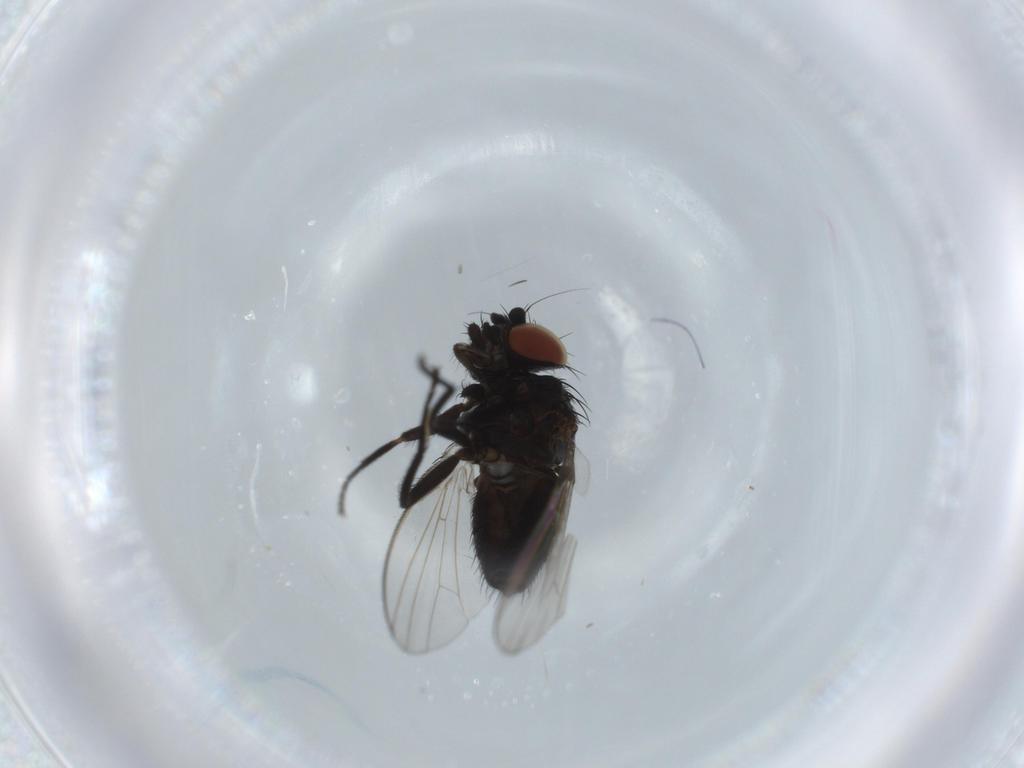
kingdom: Animalia
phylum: Arthropoda
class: Insecta
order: Diptera
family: Milichiidae
